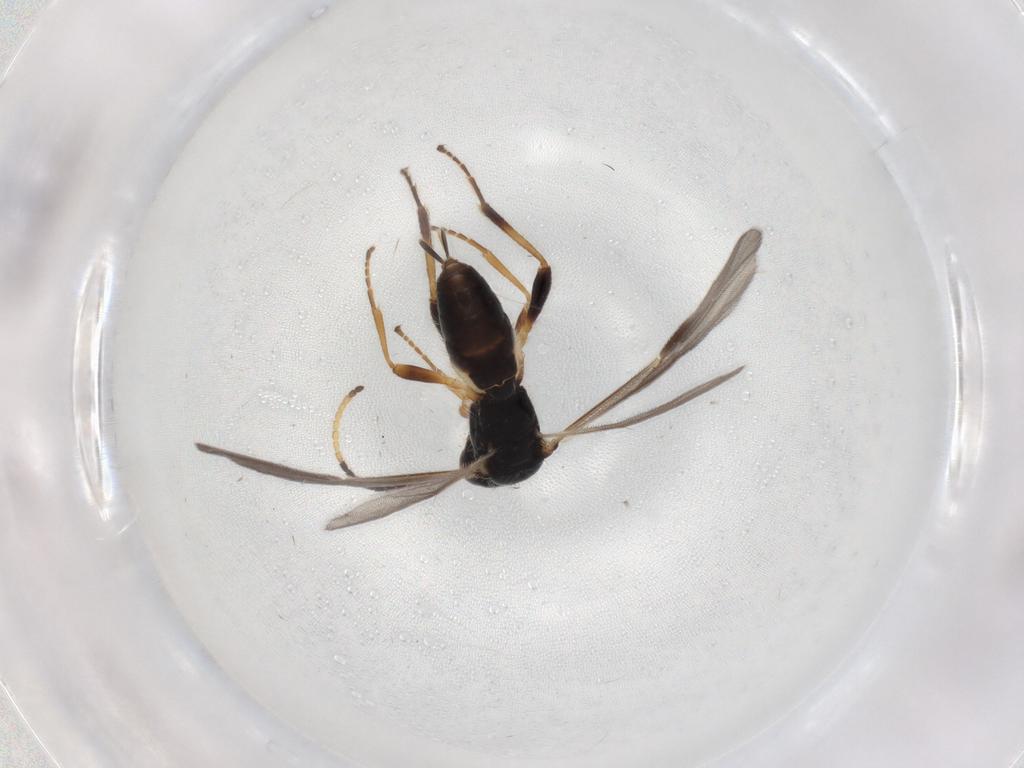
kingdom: Animalia
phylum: Arthropoda
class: Insecta
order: Hymenoptera
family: Braconidae
